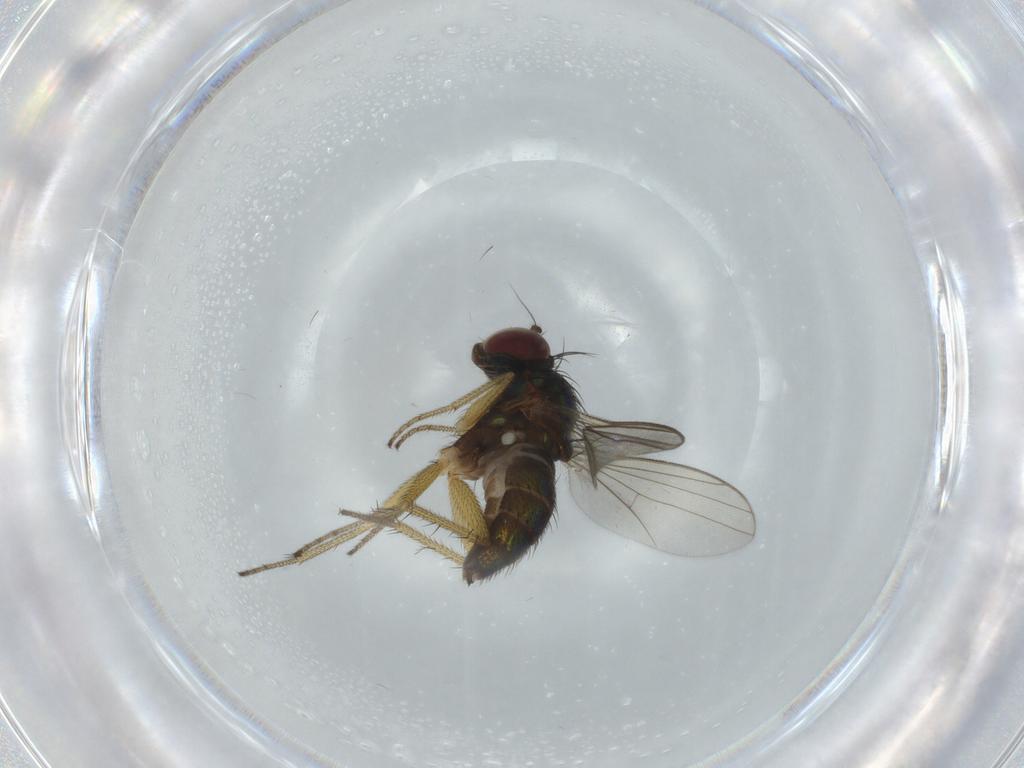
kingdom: Animalia
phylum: Arthropoda
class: Insecta
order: Diptera
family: Dolichopodidae
